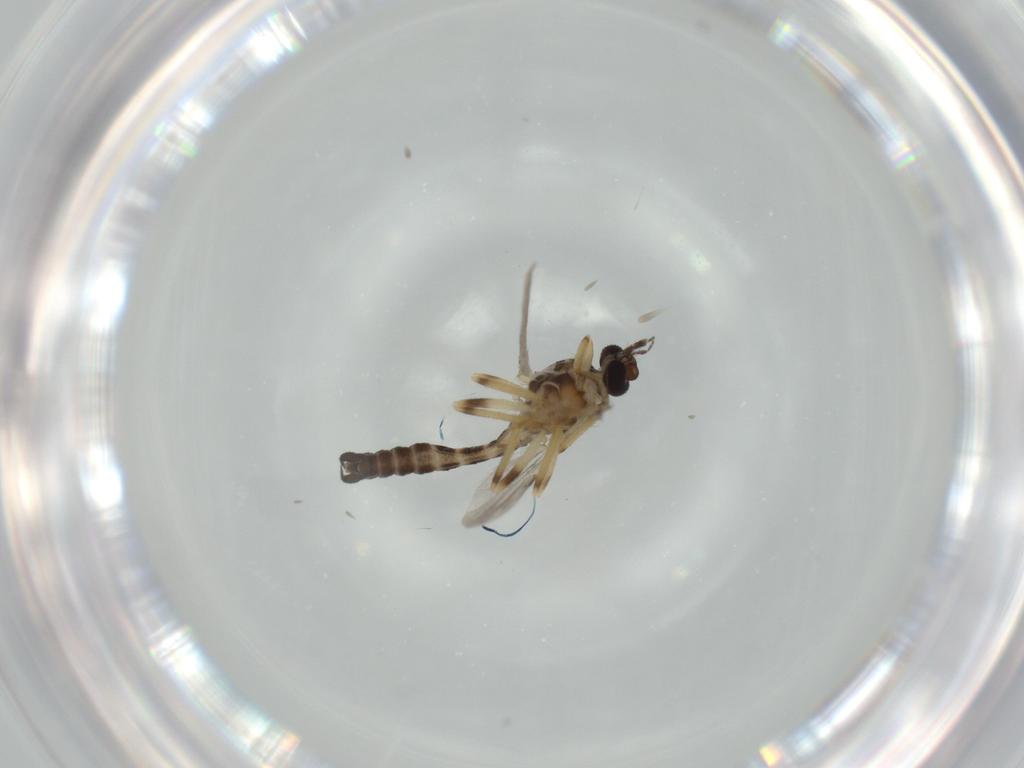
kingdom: Animalia
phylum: Arthropoda
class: Insecta
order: Diptera
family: Ceratopogonidae
